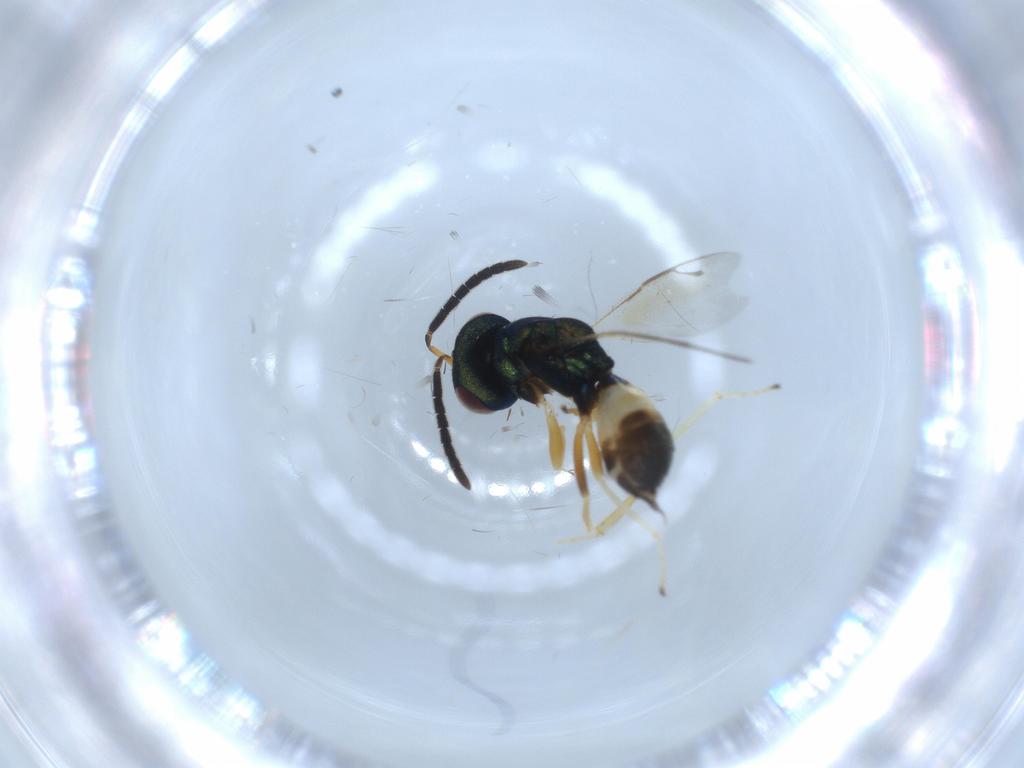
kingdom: Animalia
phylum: Arthropoda
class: Insecta
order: Hymenoptera
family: Pteromalidae
